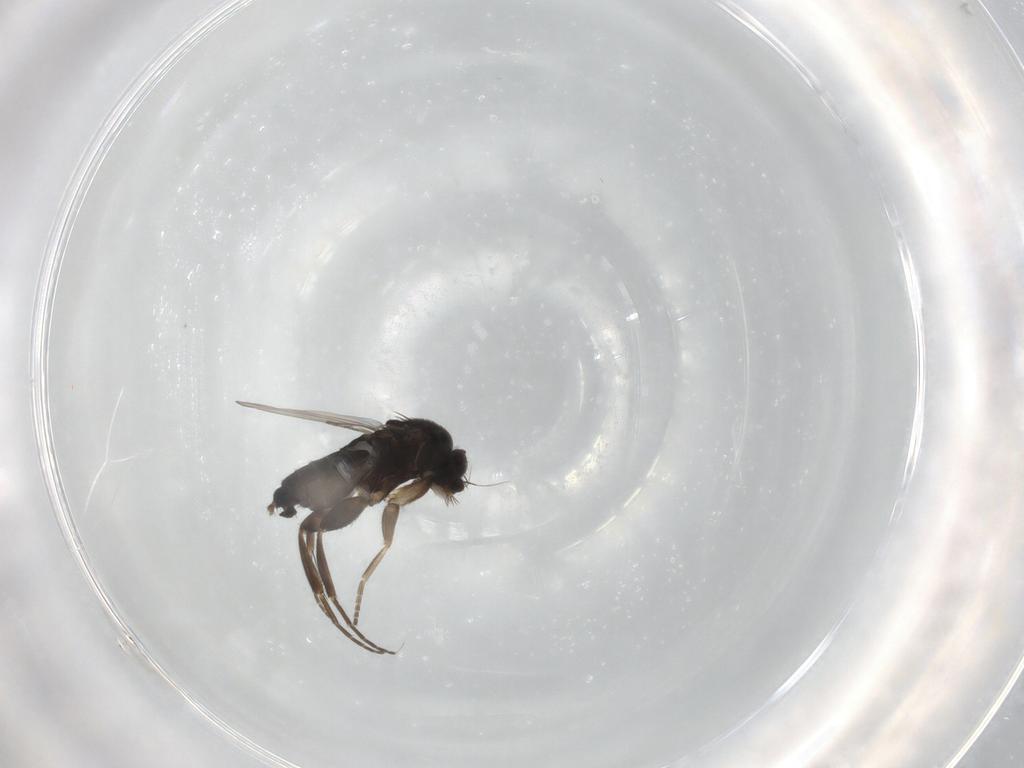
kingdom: Animalia
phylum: Arthropoda
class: Insecta
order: Diptera
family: Phoridae
